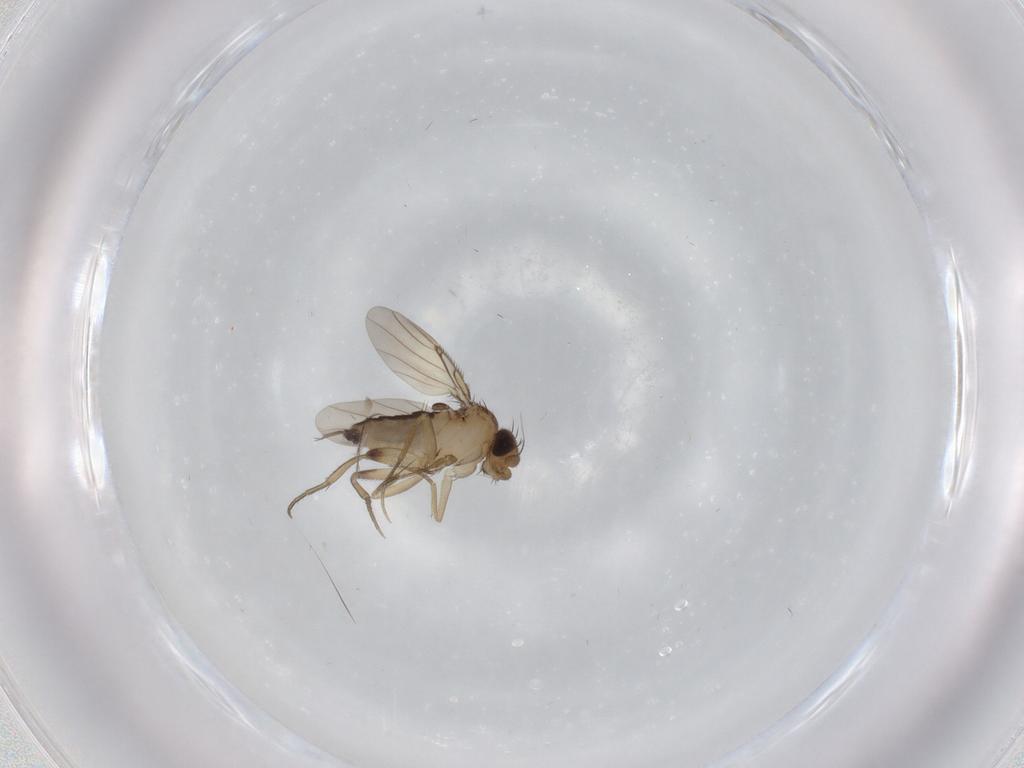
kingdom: Animalia
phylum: Arthropoda
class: Insecta
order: Diptera
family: Phoridae
